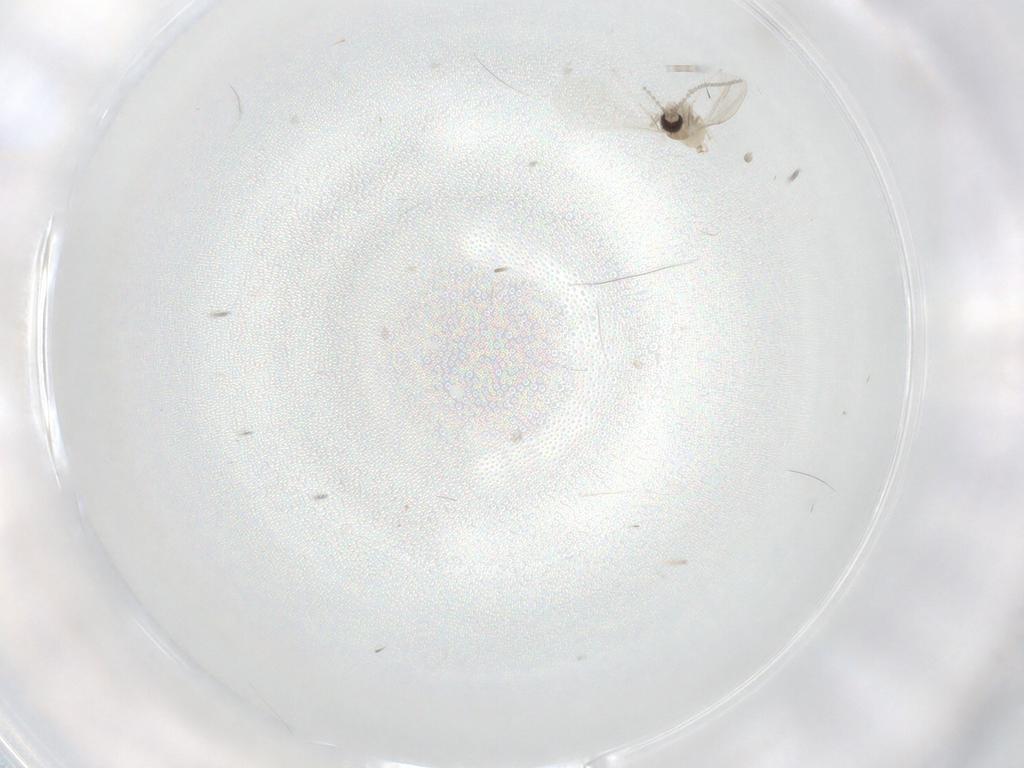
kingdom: Animalia
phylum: Arthropoda
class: Insecta
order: Diptera
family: Cecidomyiidae
